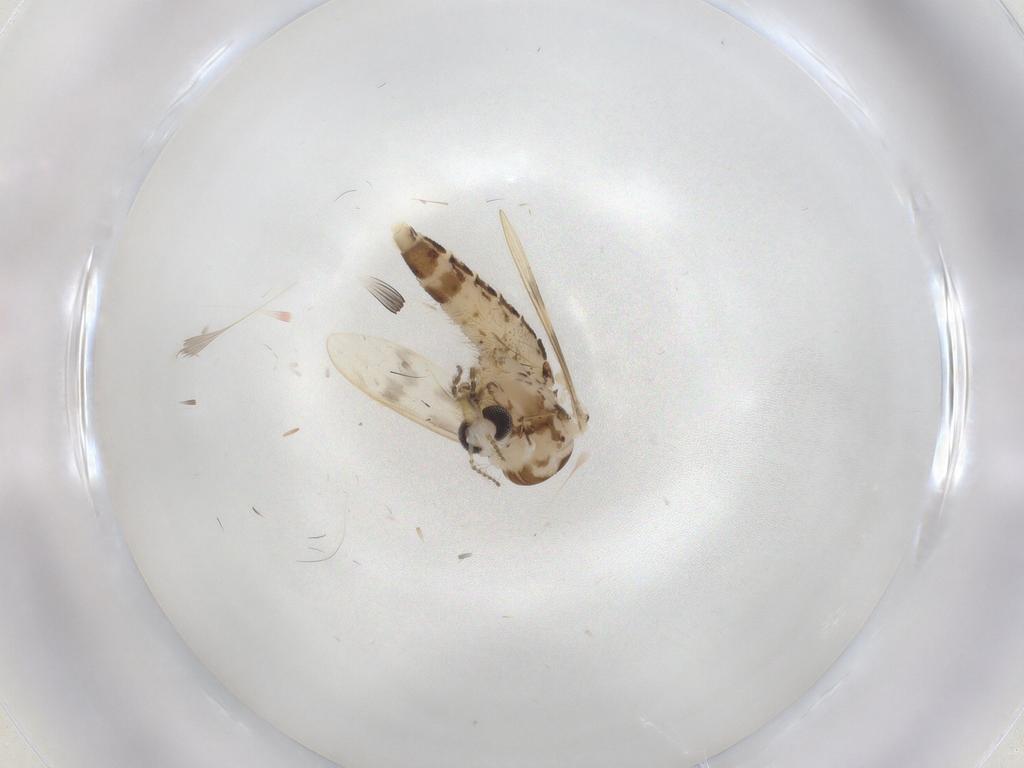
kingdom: Animalia
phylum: Arthropoda
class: Insecta
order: Diptera
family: Chaoboridae
